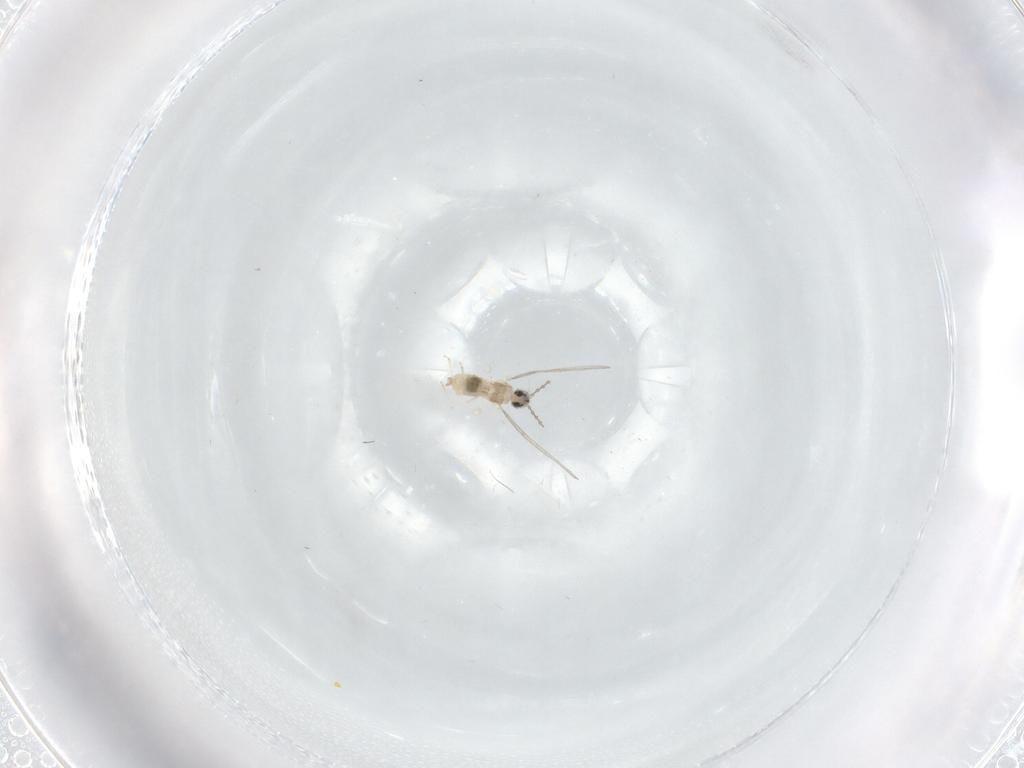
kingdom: Animalia
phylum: Arthropoda
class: Insecta
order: Diptera
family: Cecidomyiidae
